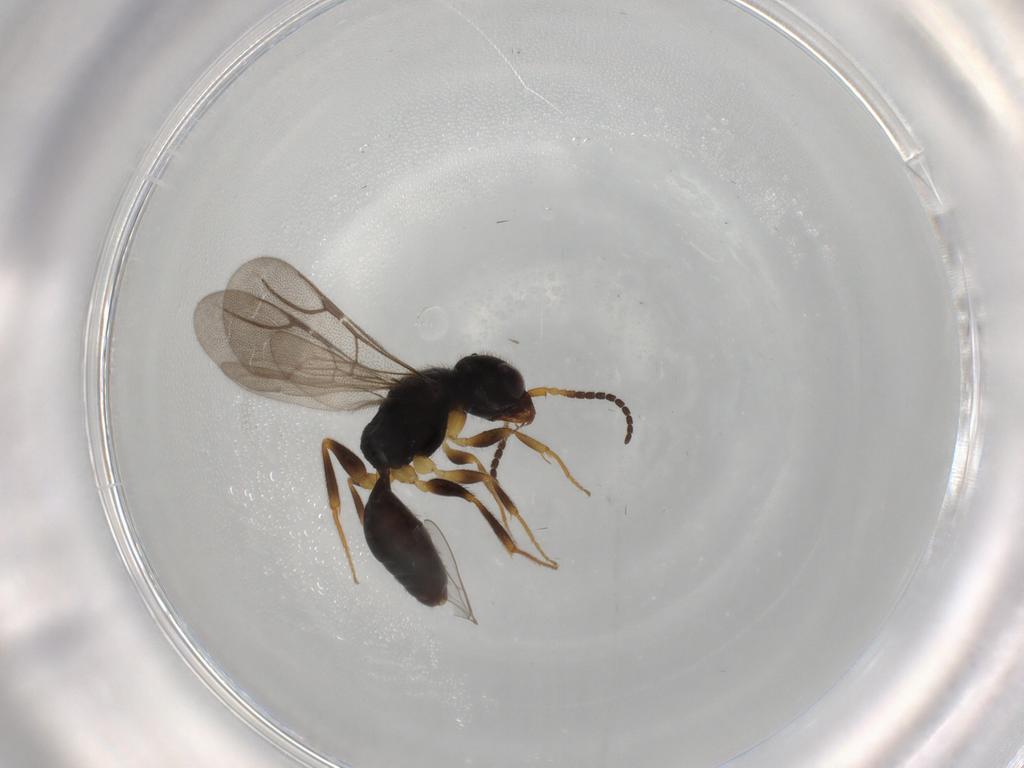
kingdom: Animalia
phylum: Arthropoda
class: Insecta
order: Hymenoptera
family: Bethylidae
